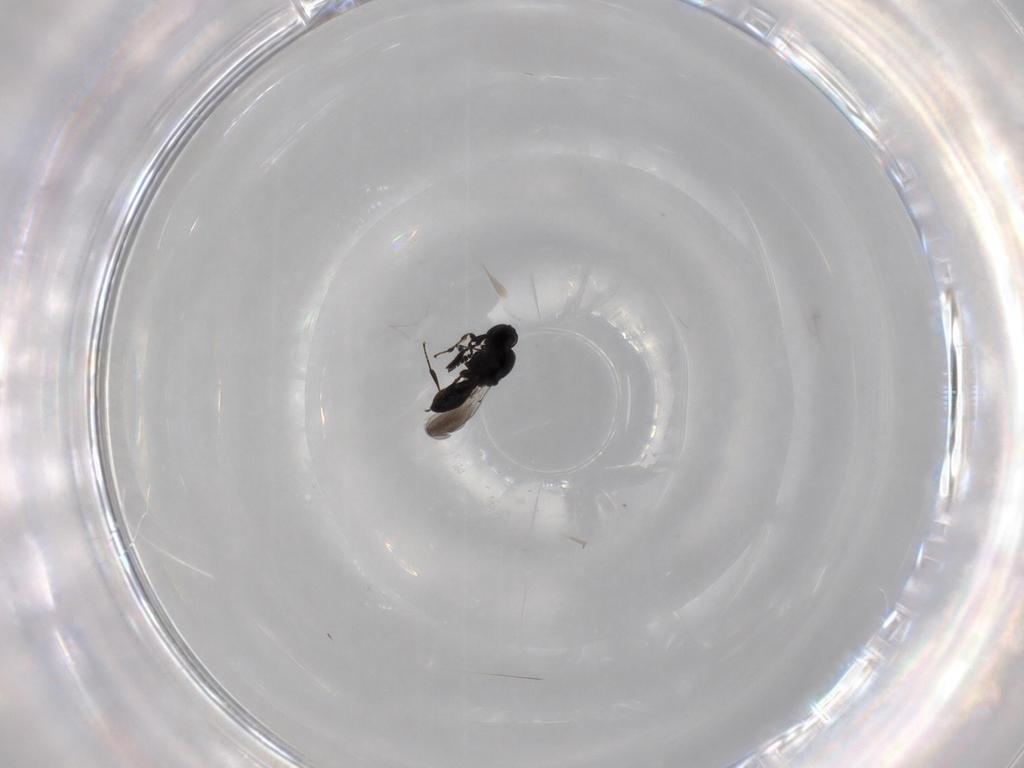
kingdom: Animalia
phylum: Arthropoda
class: Insecta
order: Hymenoptera
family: Platygastridae
